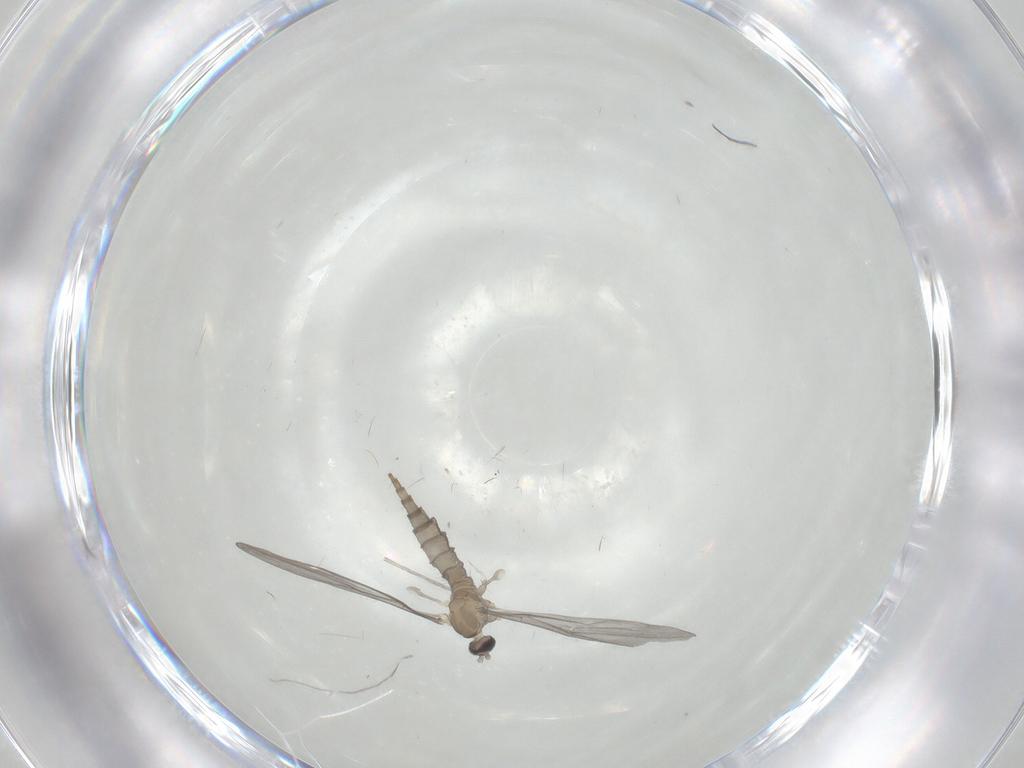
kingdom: Animalia
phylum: Arthropoda
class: Insecta
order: Diptera
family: Cecidomyiidae
